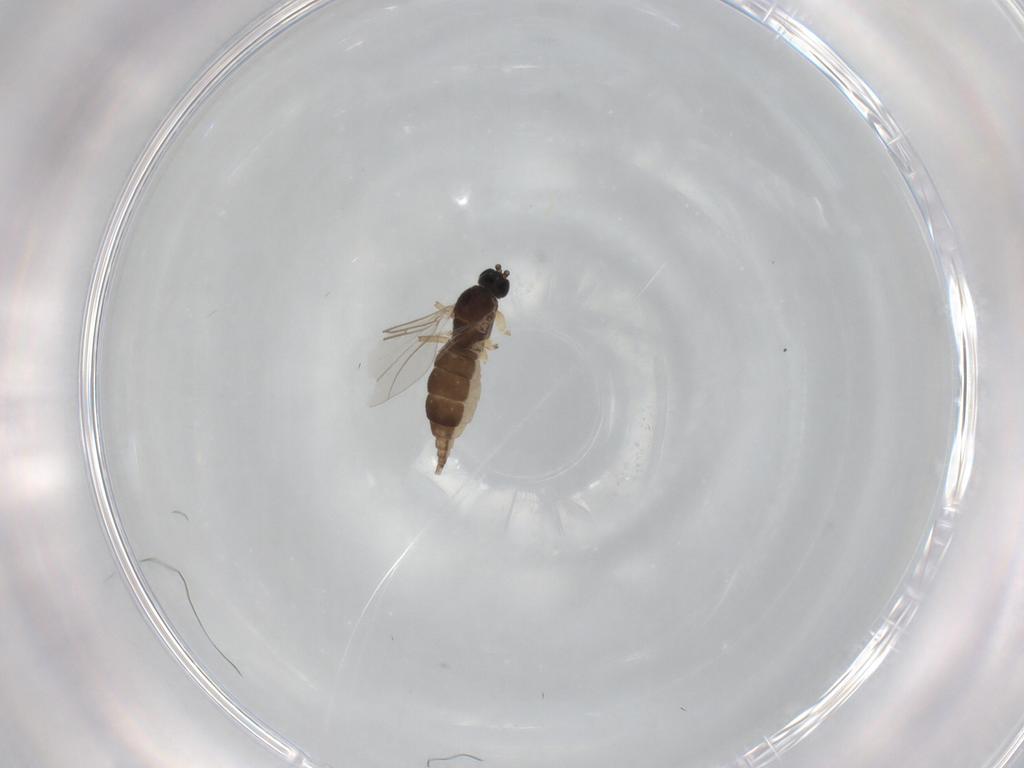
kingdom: Animalia
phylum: Arthropoda
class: Insecta
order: Diptera
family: Sciaridae
